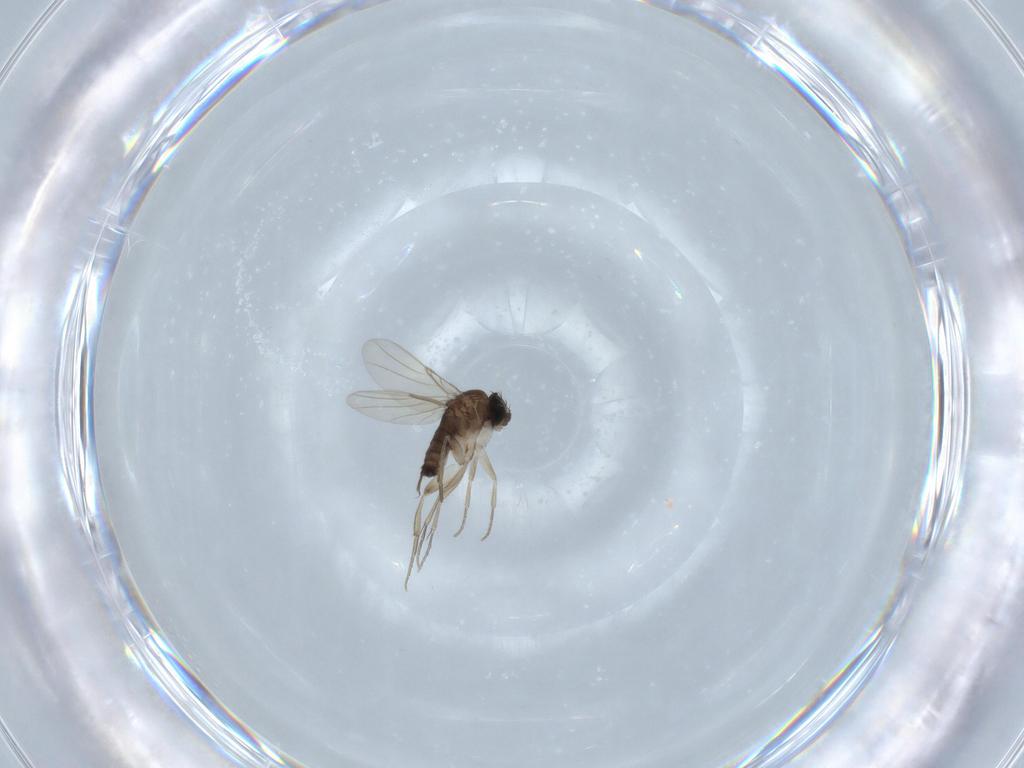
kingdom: Animalia
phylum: Arthropoda
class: Insecta
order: Diptera
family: Phoridae
